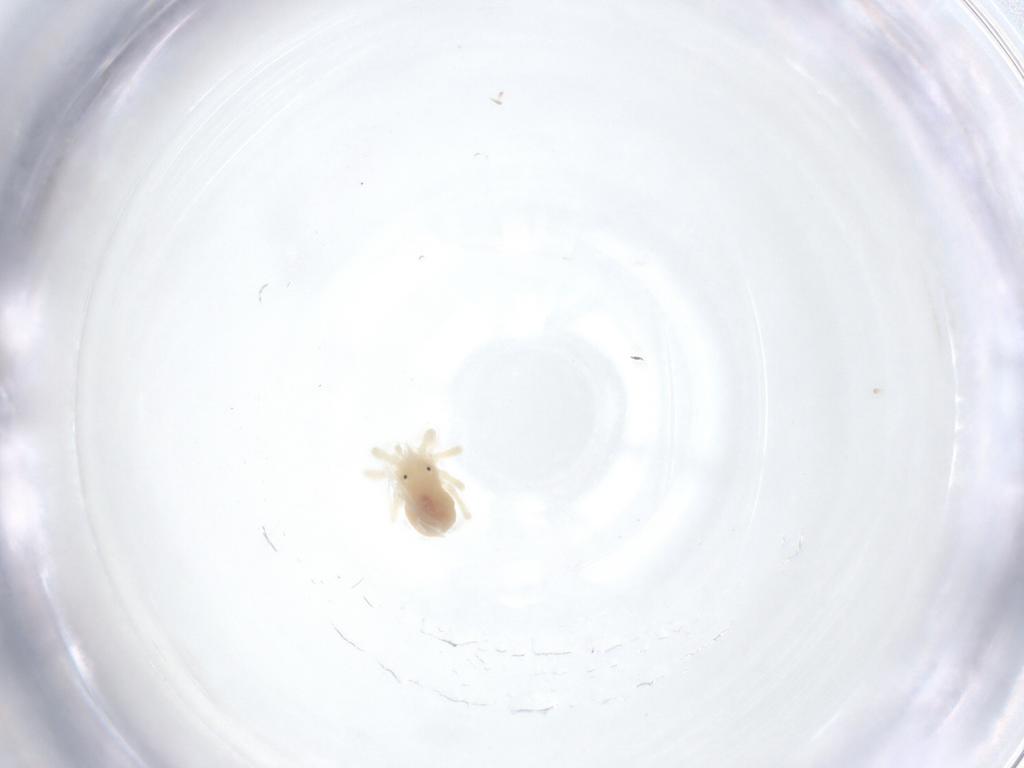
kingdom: Animalia
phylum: Arthropoda
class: Arachnida
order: Trombidiformes
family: Anystidae
